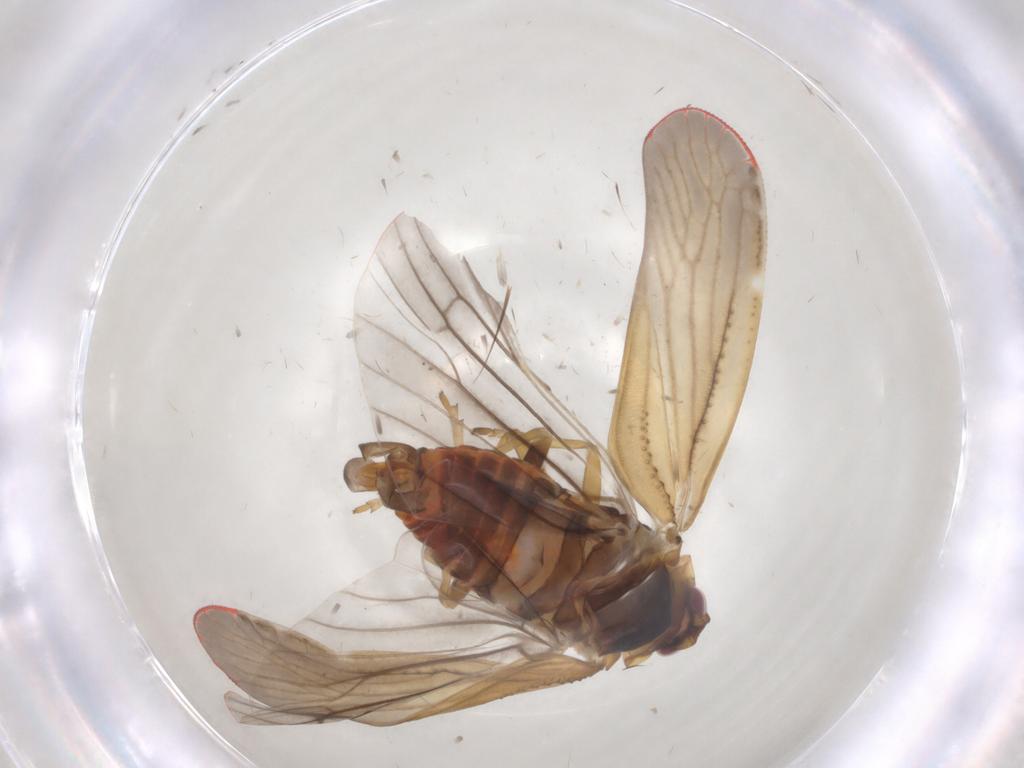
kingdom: Animalia
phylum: Arthropoda
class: Insecta
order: Hemiptera
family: Derbidae
